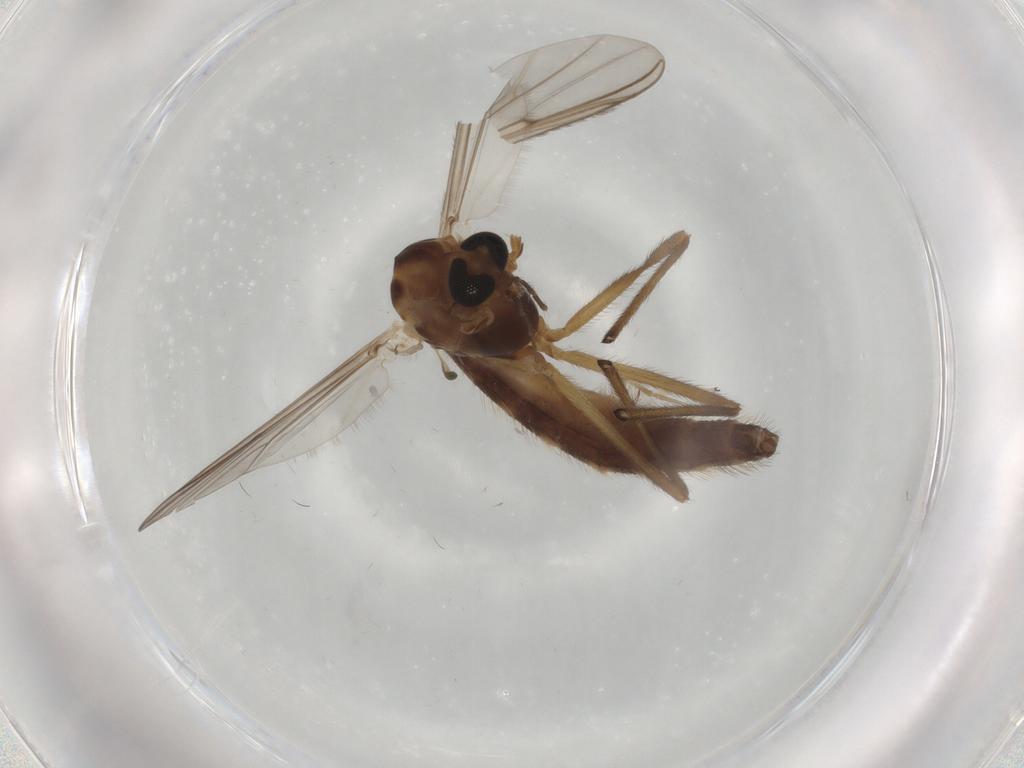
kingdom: Animalia
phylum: Arthropoda
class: Insecta
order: Diptera
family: Chironomidae
